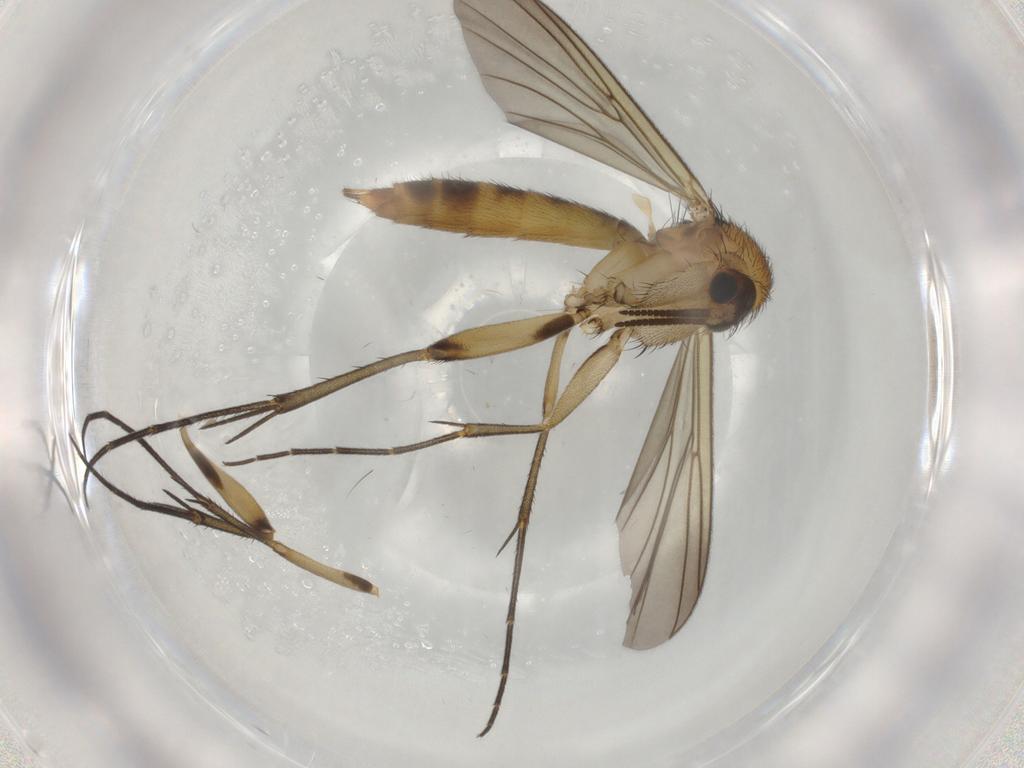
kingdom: Animalia
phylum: Arthropoda
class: Insecta
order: Diptera
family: Mycetophilidae
